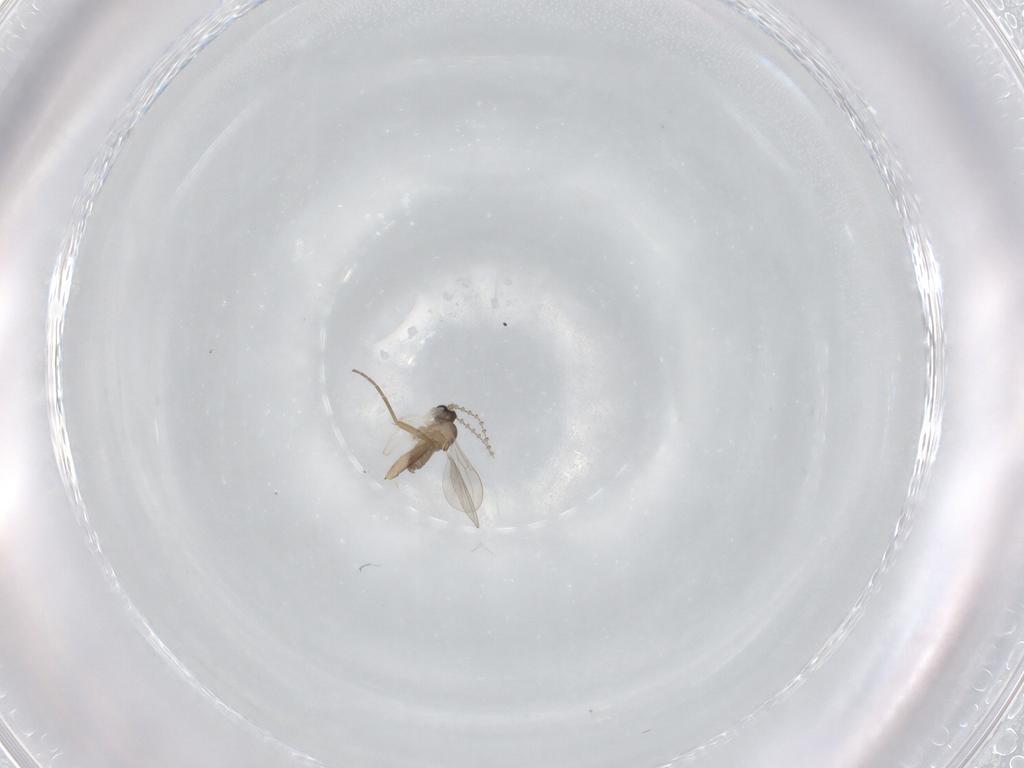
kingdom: Animalia
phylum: Arthropoda
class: Insecta
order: Diptera
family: Cecidomyiidae
